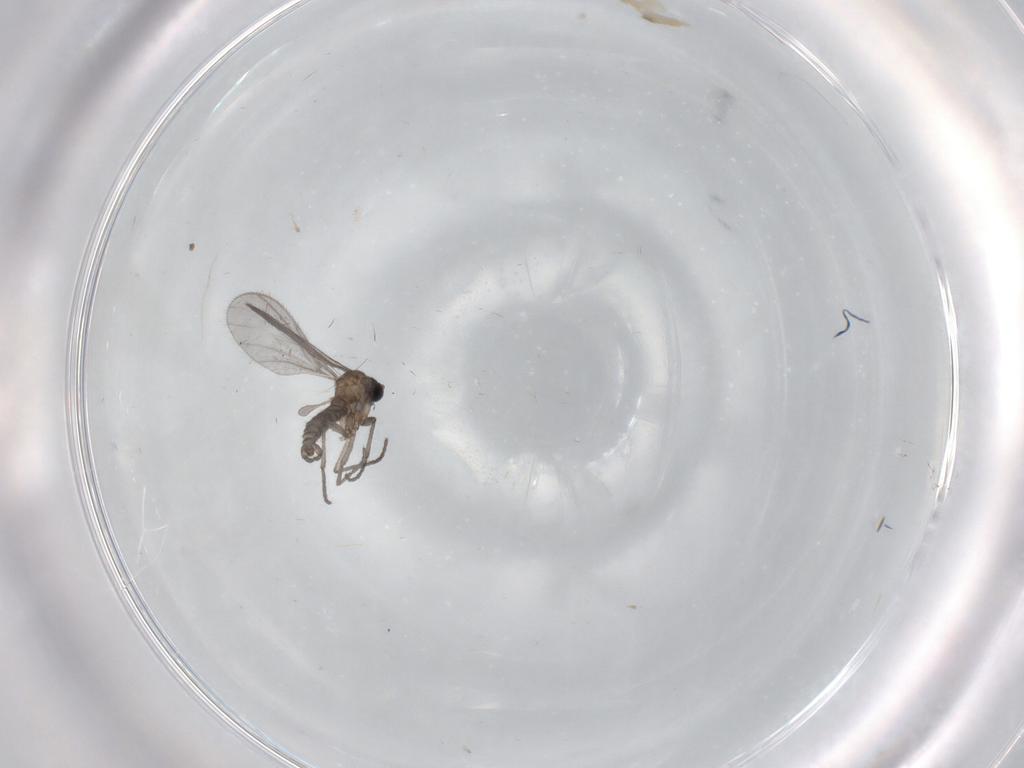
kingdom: Animalia
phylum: Arthropoda
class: Insecta
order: Diptera
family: Sciaridae
